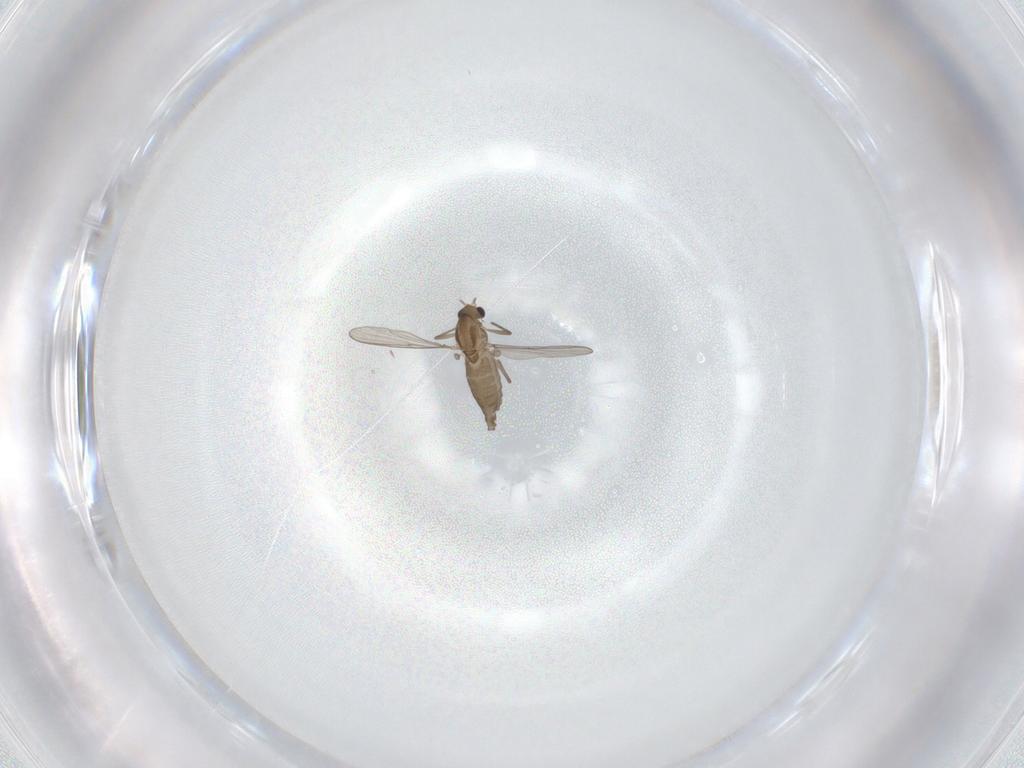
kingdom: Animalia
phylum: Arthropoda
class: Insecta
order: Diptera
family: Chironomidae
